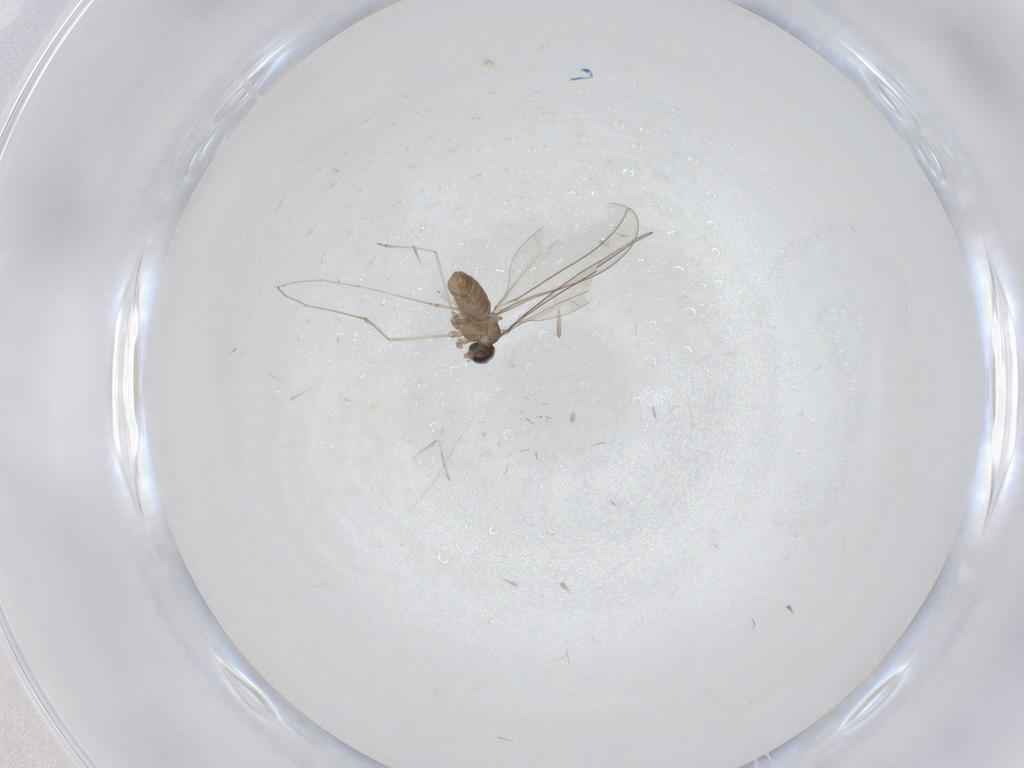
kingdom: Animalia
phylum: Arthropoda
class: Insecta
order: Diptera
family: Cecidomyiidae
